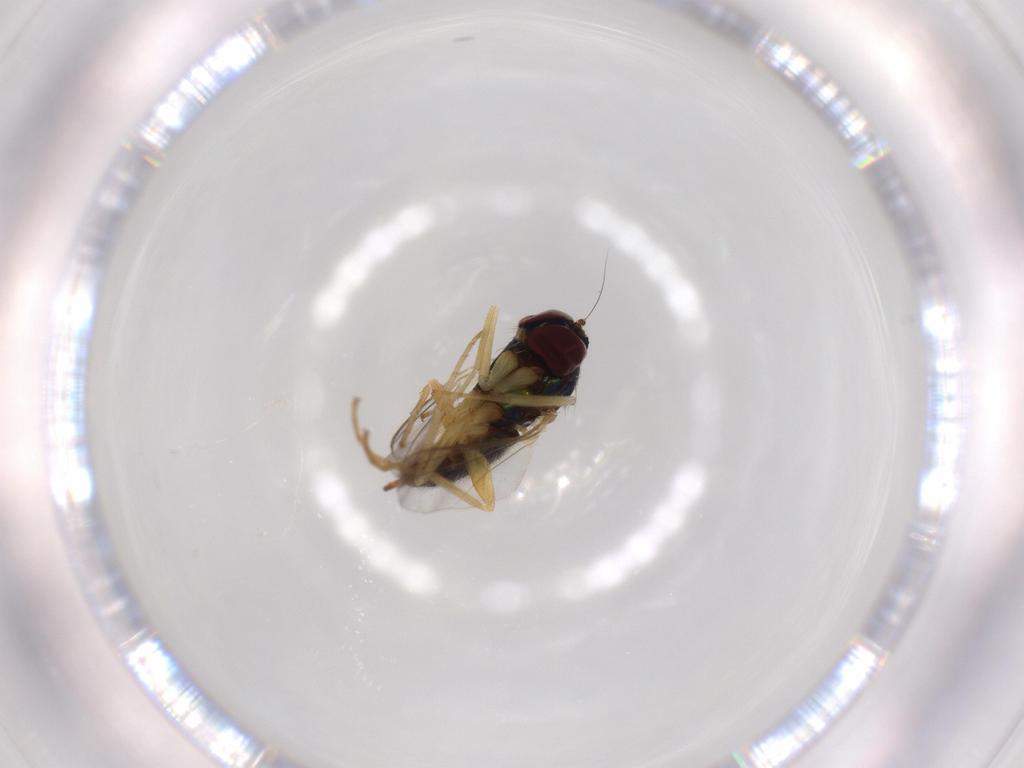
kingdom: Animalia
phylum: Arthropoda
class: Insecta
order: Diptera
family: Dolichopodidae
